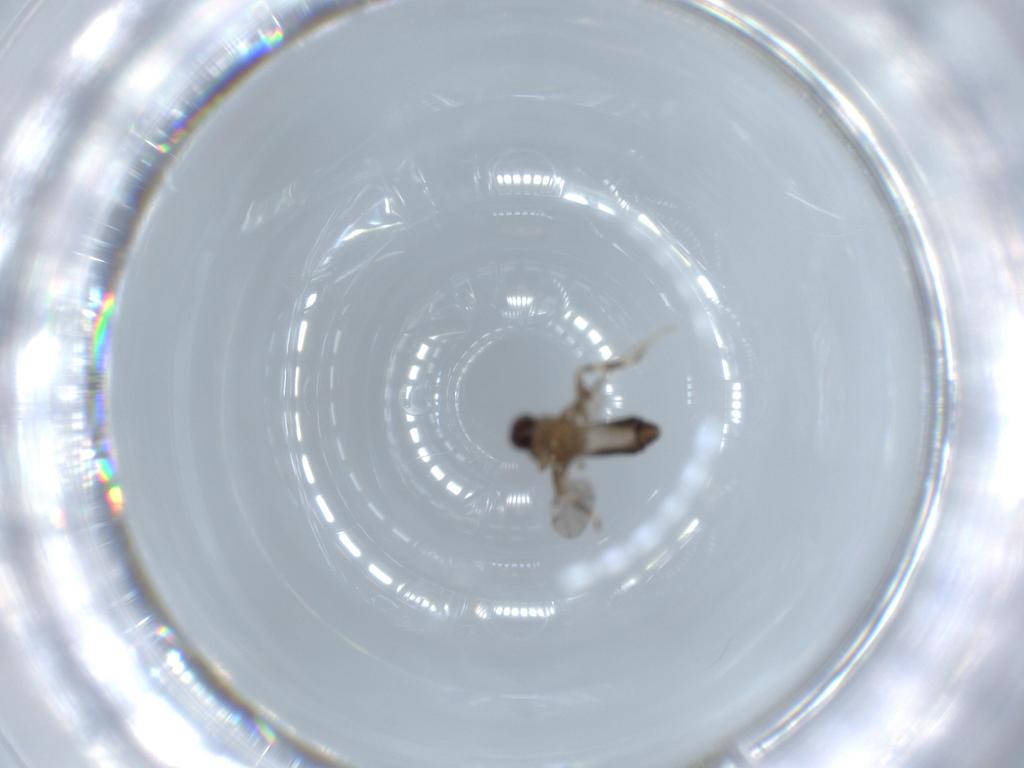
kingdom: Animalia
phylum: Arthropoda
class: Insecta
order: Diptera
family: Ceratopogonidae
